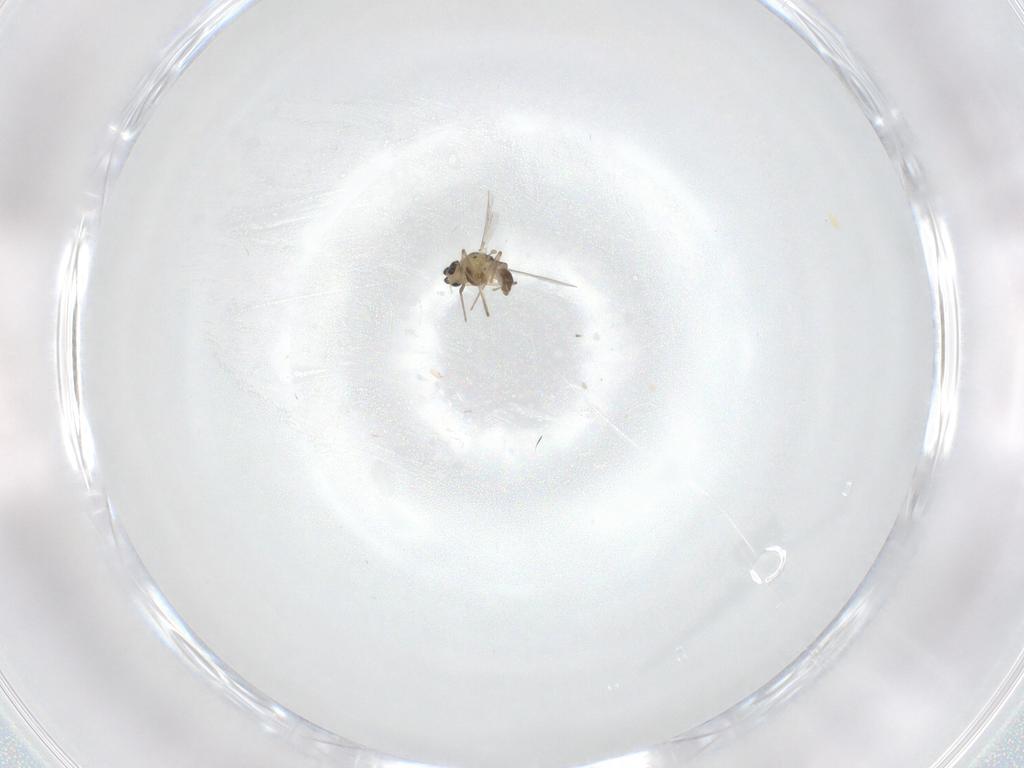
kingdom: Animalia
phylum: Arthropoda
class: Insecta
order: Diptera
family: Chironomidae
